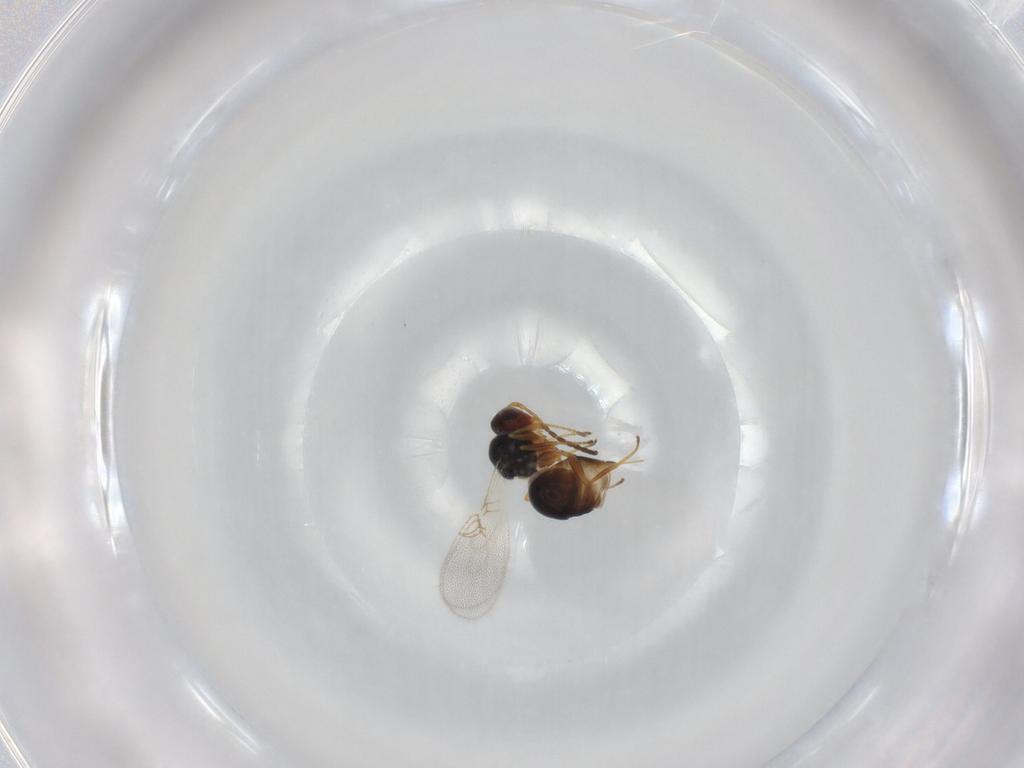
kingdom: Animalia
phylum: Arthropoda
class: Insecta
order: Hymenoptera
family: Figitidae
